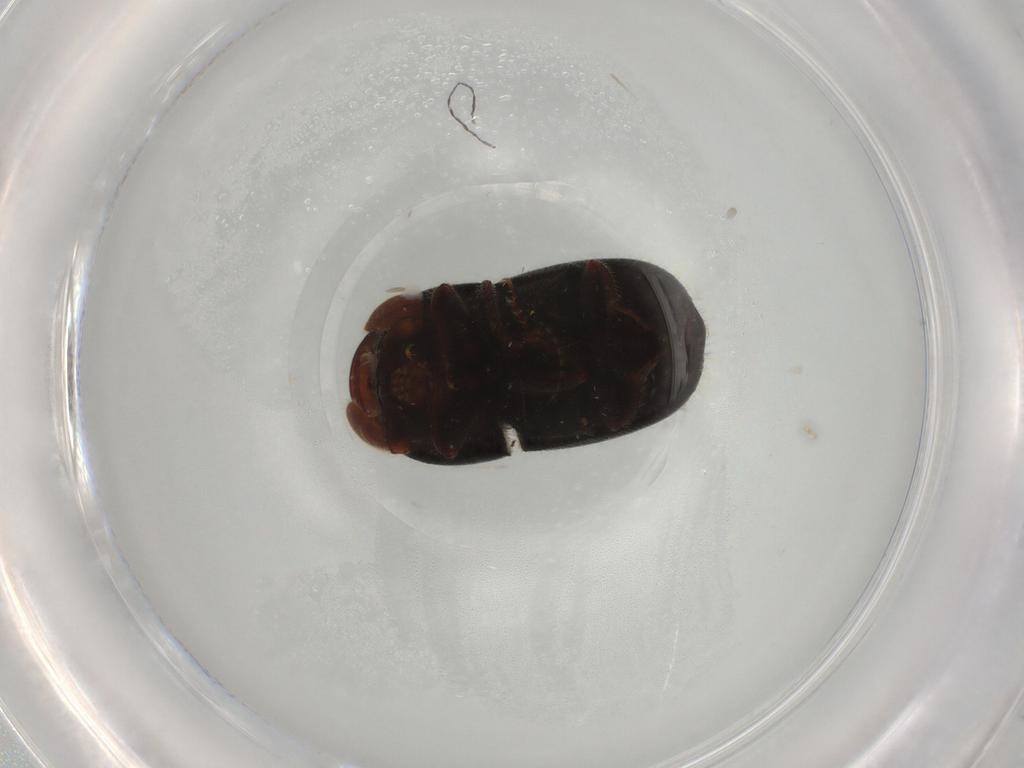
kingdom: Animalia
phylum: Arthropoda
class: Insecta
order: Coleoptera
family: Curculionidae
